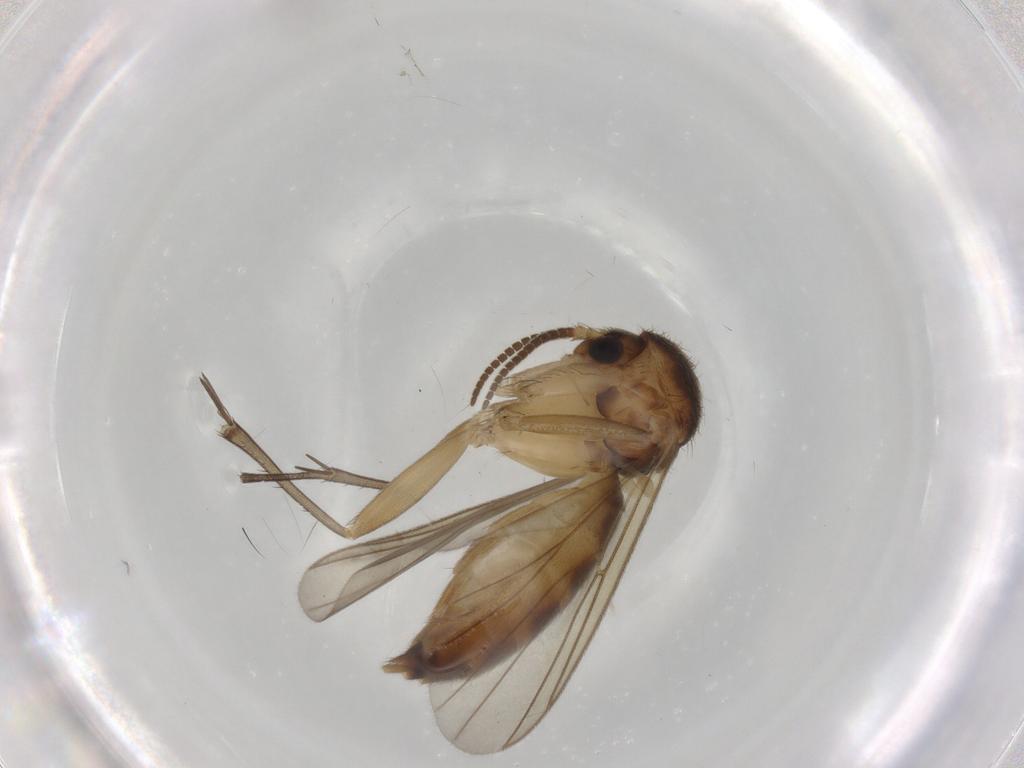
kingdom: Animalia
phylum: Arthropoda
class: Insecta
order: Diptera
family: Mycetophilidae
